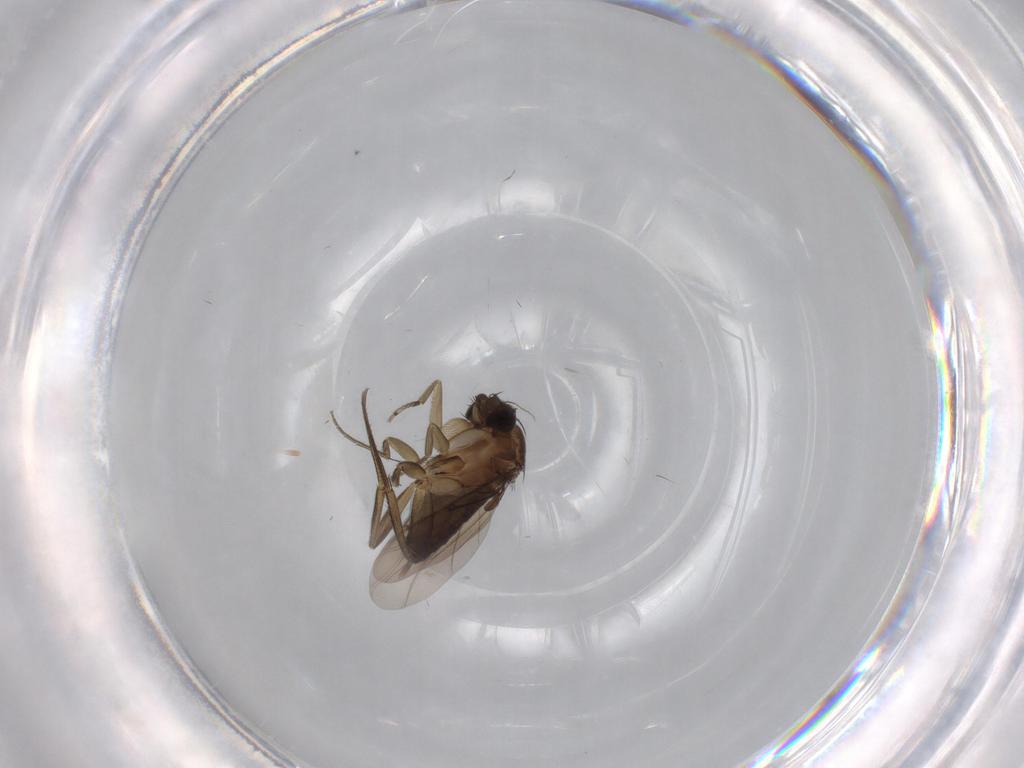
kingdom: Animalia
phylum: Arthropoda
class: Insecta
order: Diptera
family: Phoridae
